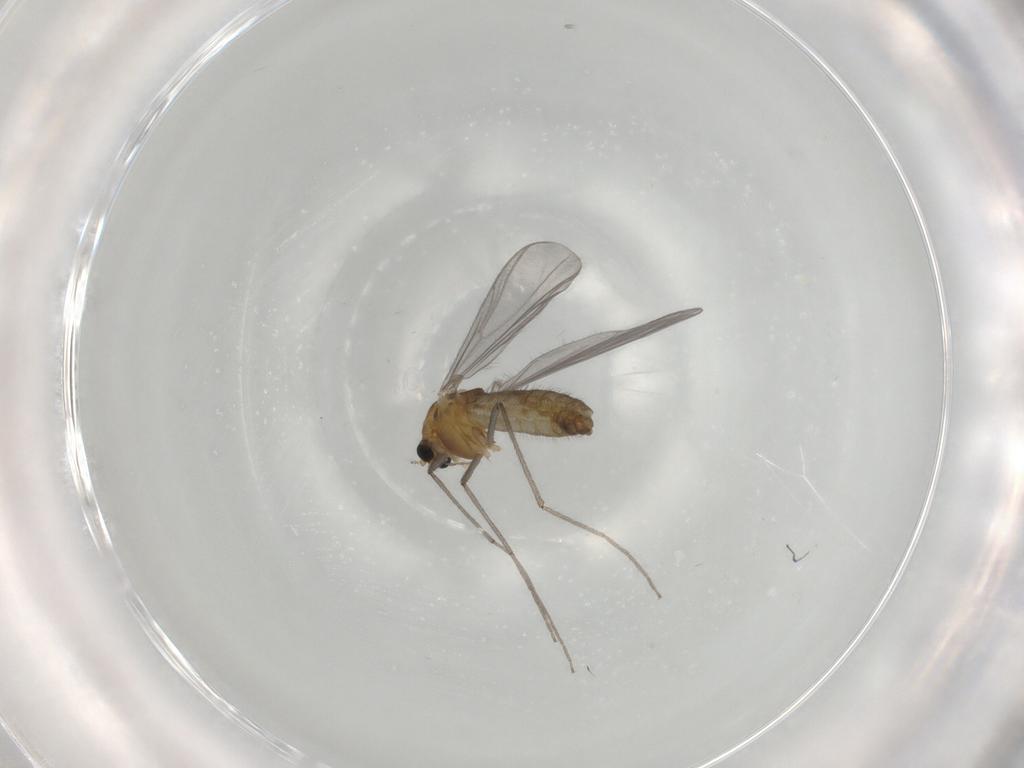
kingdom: Animalia
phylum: Arthropoda
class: Insecta
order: Diptera
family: Chironomidae
